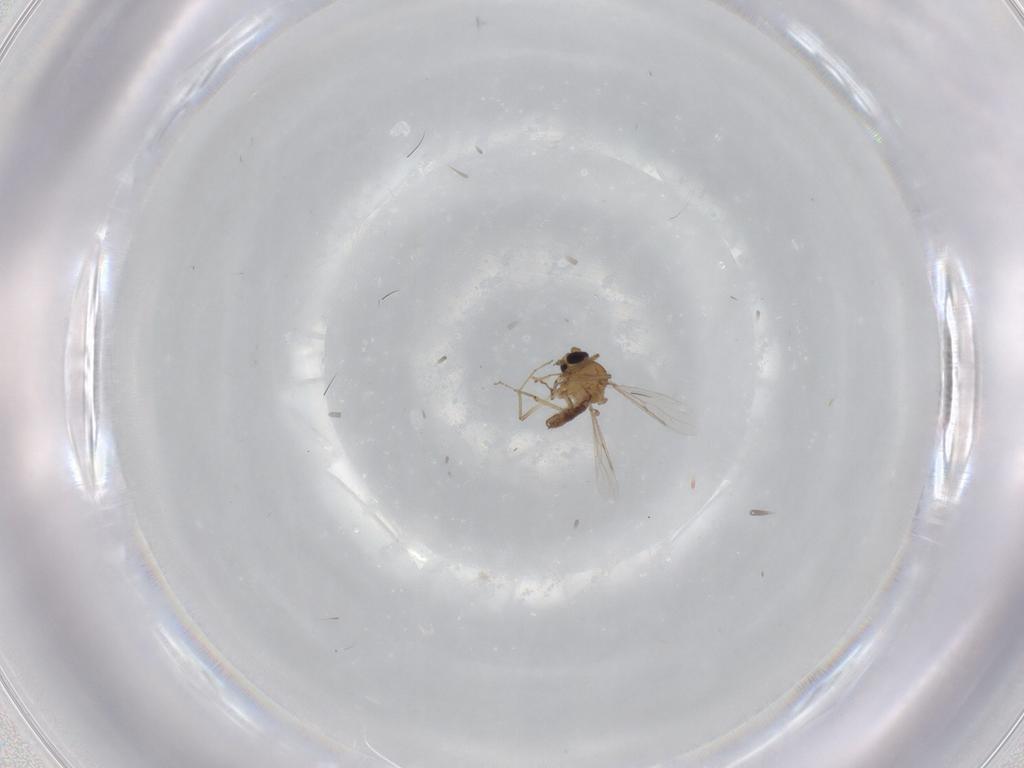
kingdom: Animalia
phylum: Arthropoda
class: Insecta
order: Diptera
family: Ceratopogonidae
